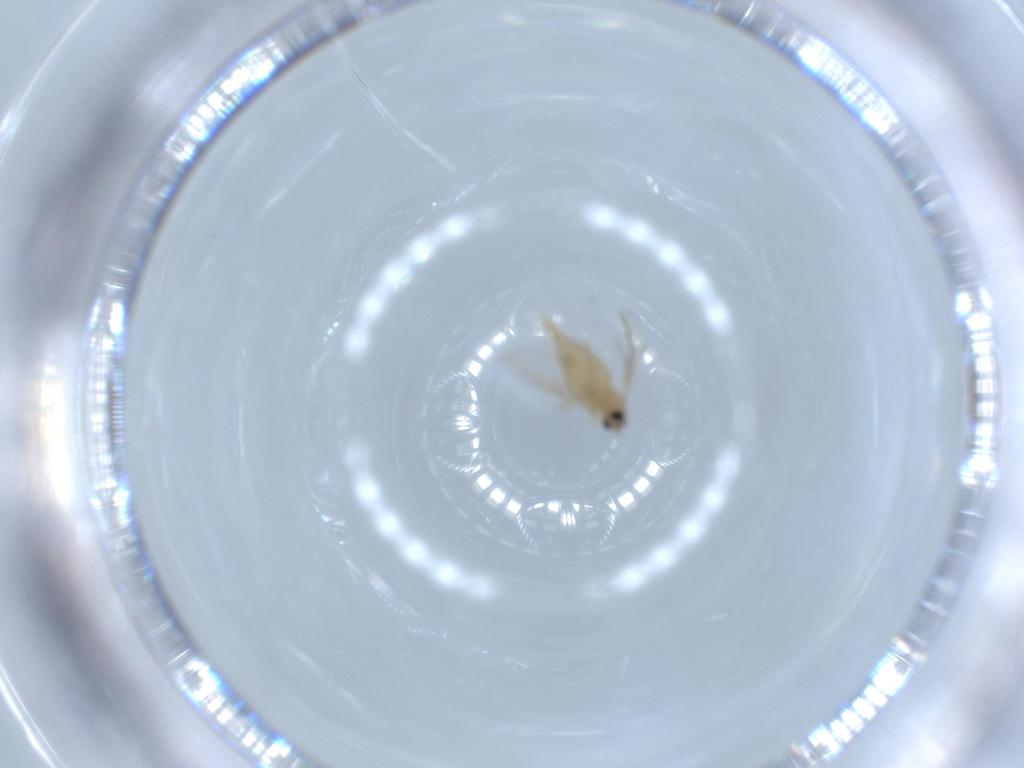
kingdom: Animalia
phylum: Arthropoda
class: Insecta
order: Diptera
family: Cecidomyiidae
